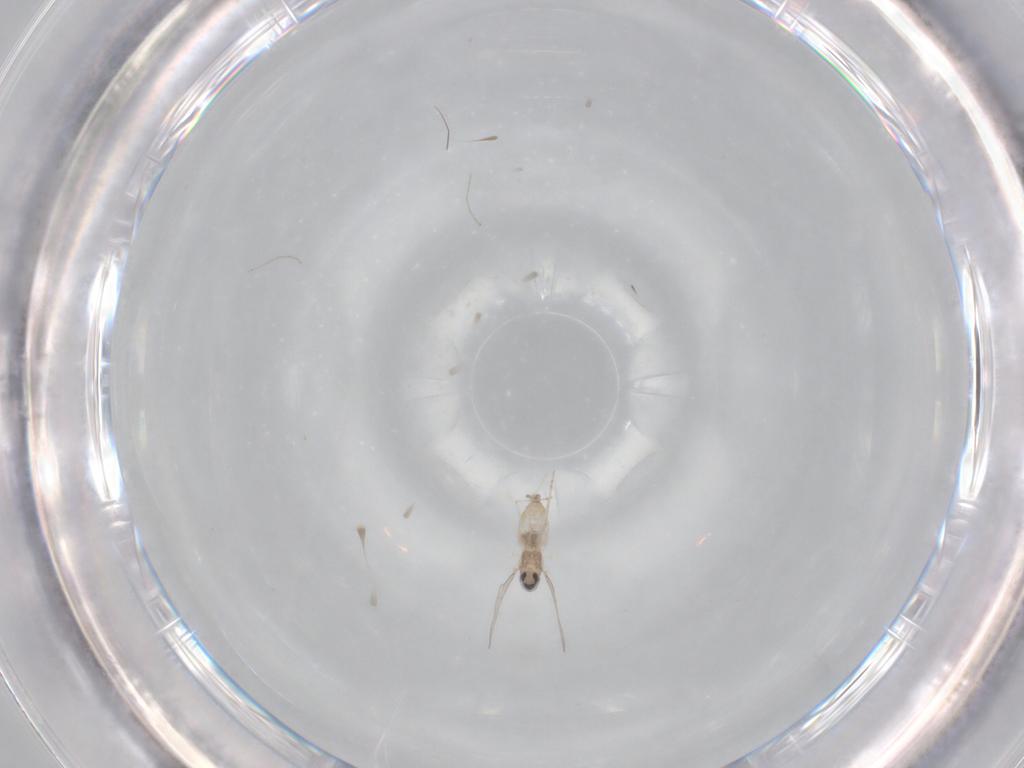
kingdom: Animalia
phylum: Arthropoda
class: Insecta
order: Diptera
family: Cecidomyiidae
